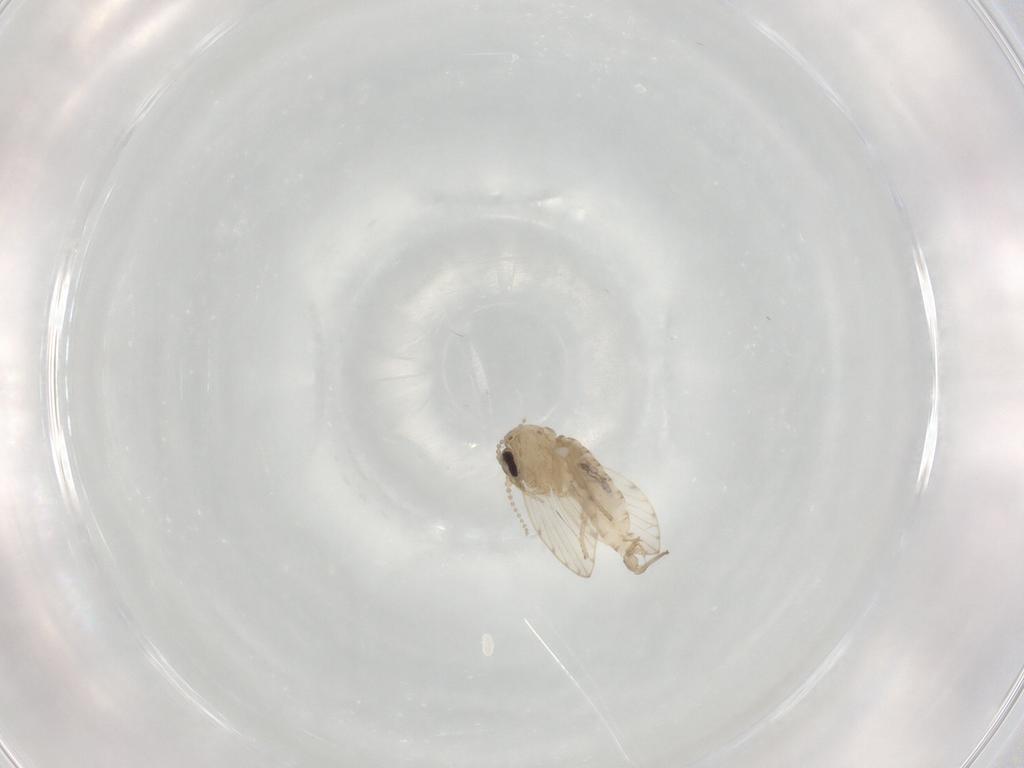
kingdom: Animalia
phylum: Arthropoda
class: Insecta
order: Diptera
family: Psychodidae
